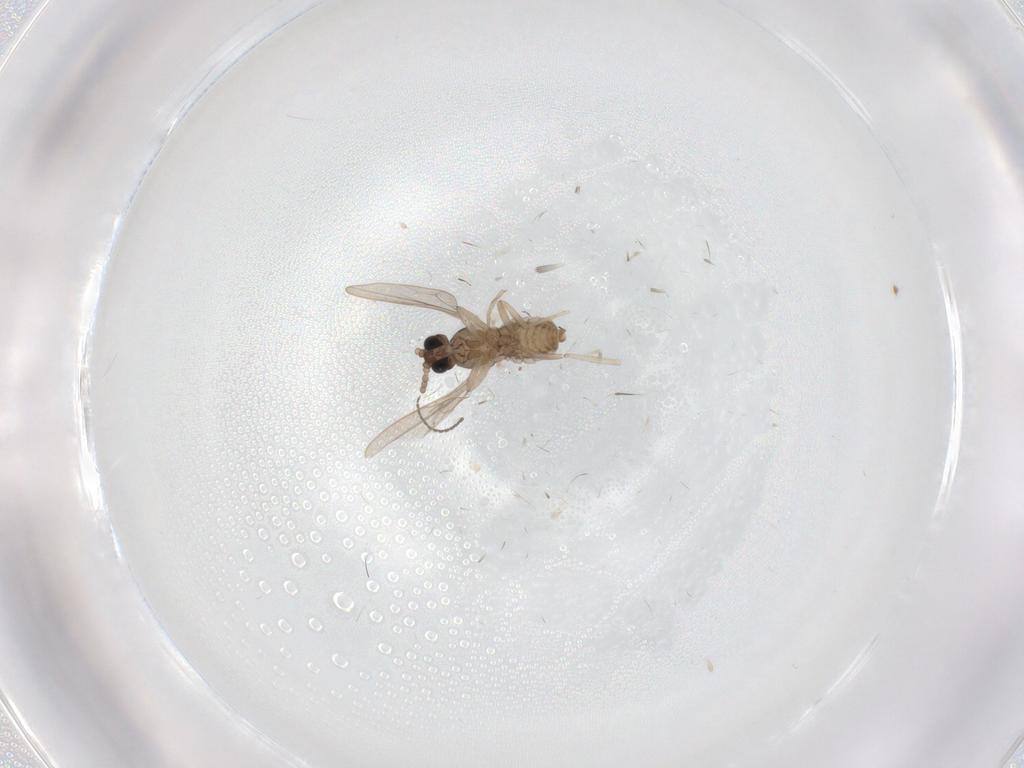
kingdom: Animalia
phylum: Arthropoda
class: Insecta
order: Diptera
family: Cecidomyiidae
